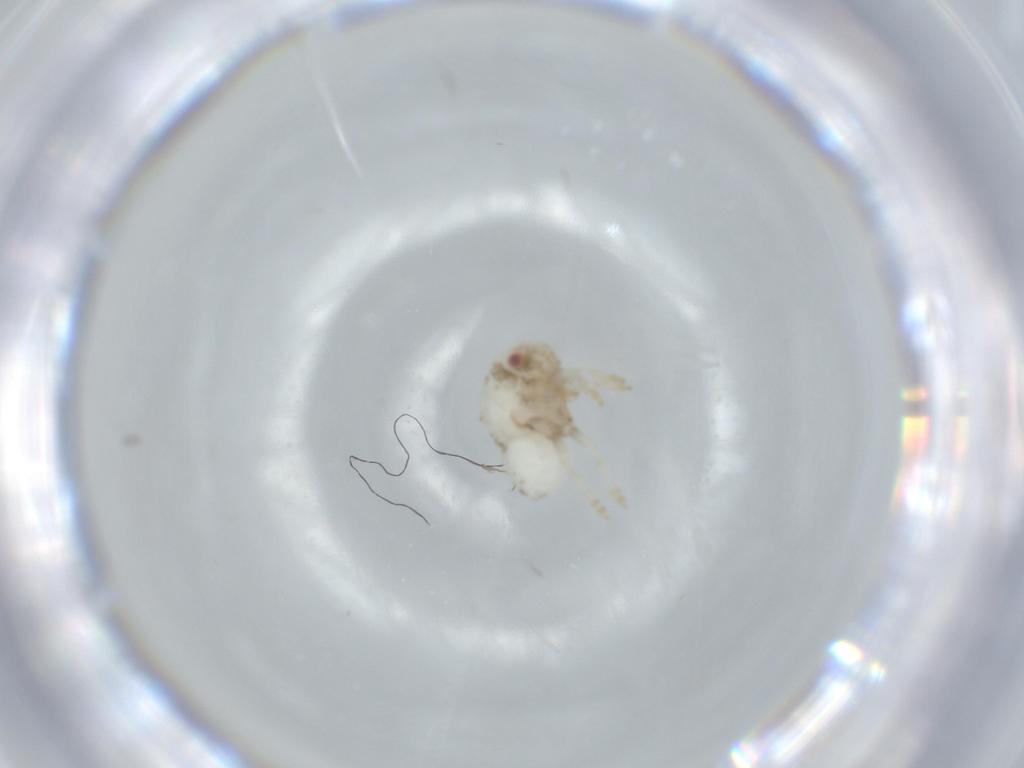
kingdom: Animalia
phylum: Arthropoda
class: Insecta
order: Hemiptera
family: Acanaloniidae
